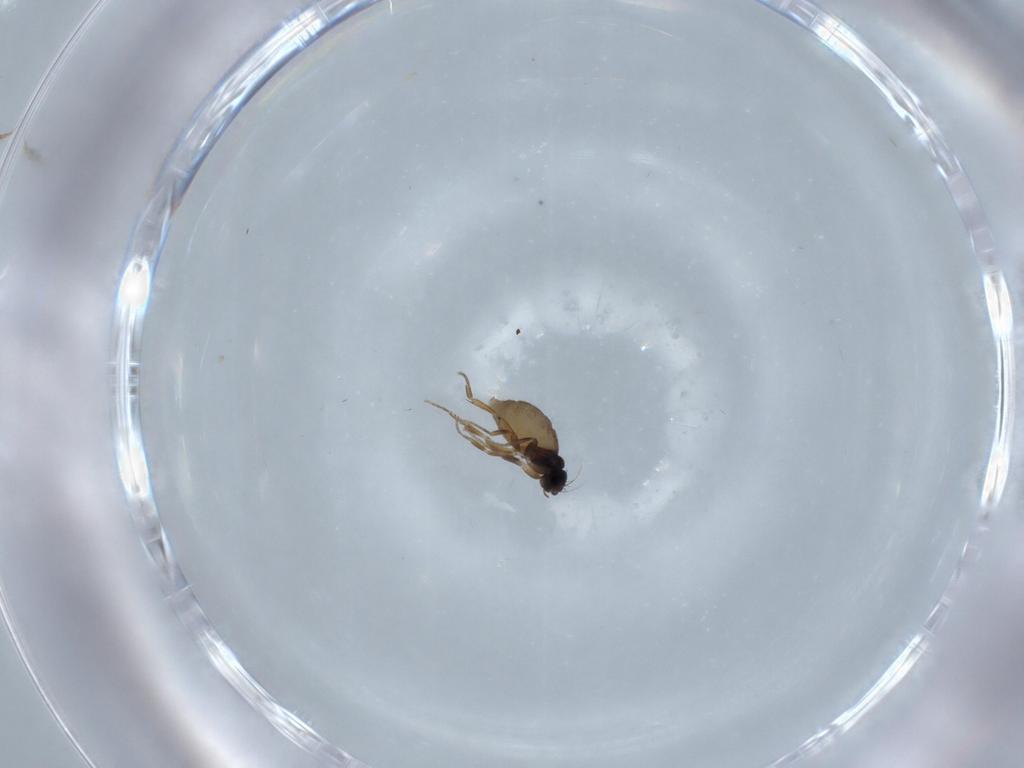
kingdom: Animalia
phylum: Arthropoda
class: Insecta
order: Diptera
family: Phoridae
